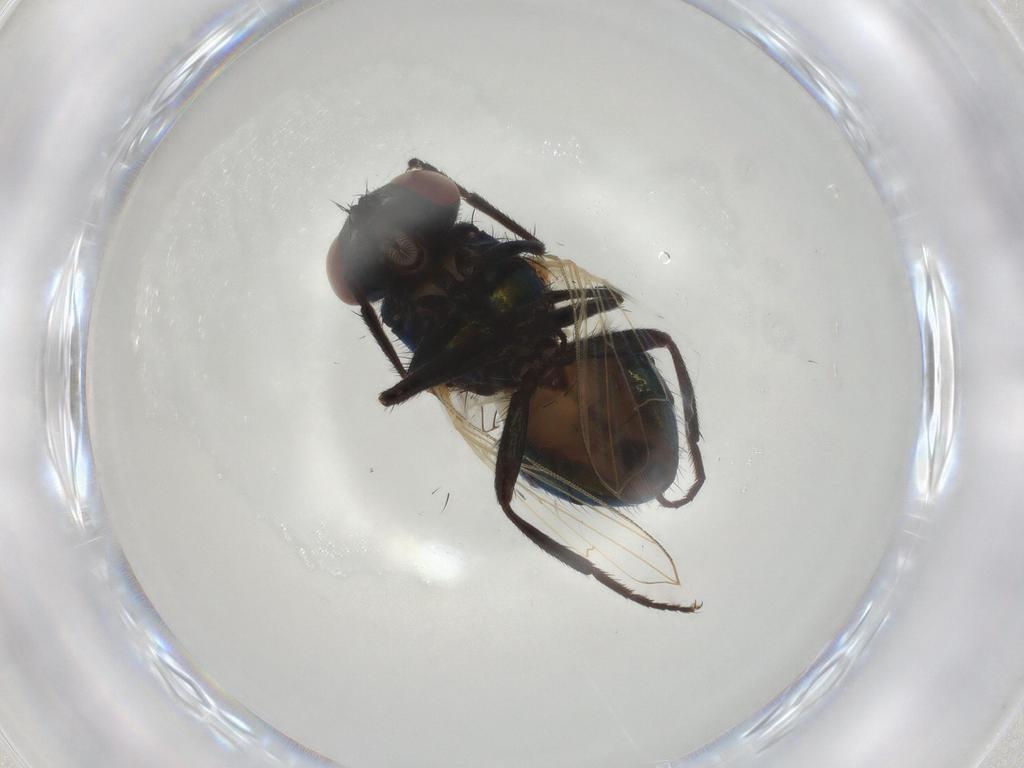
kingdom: Animalia
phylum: Arthropoda
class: Insecta
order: Diptera
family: Muscidae
